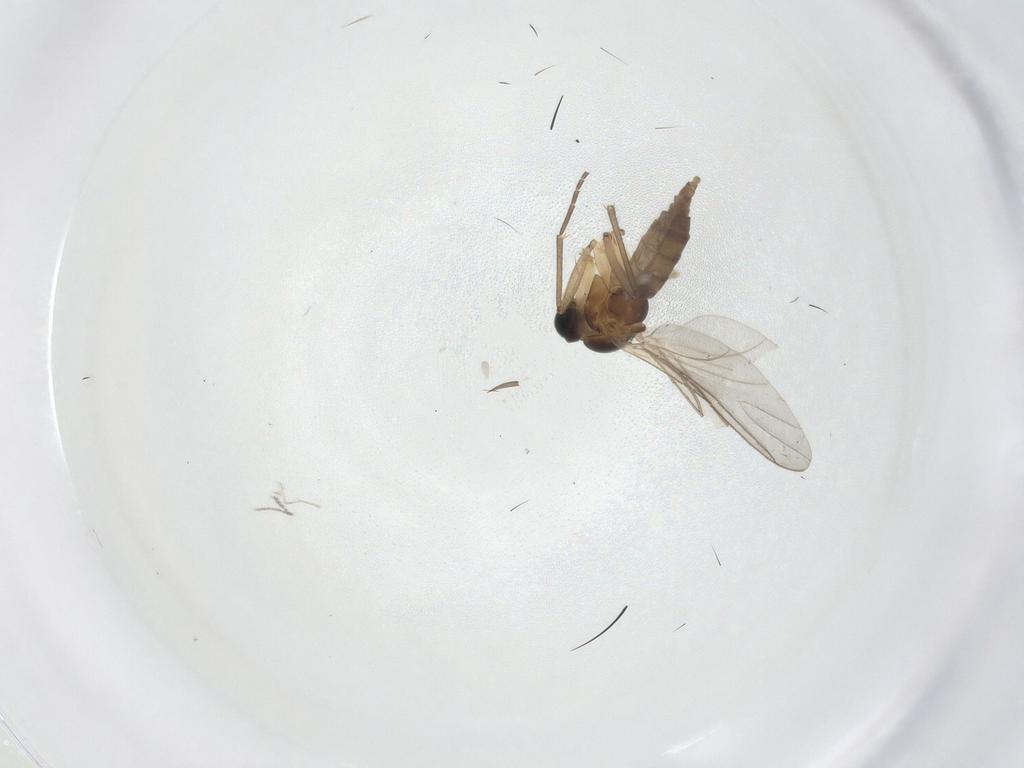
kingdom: Animalia
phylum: Arthropoda
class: Insecta
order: Diptera
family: Sciaridae
